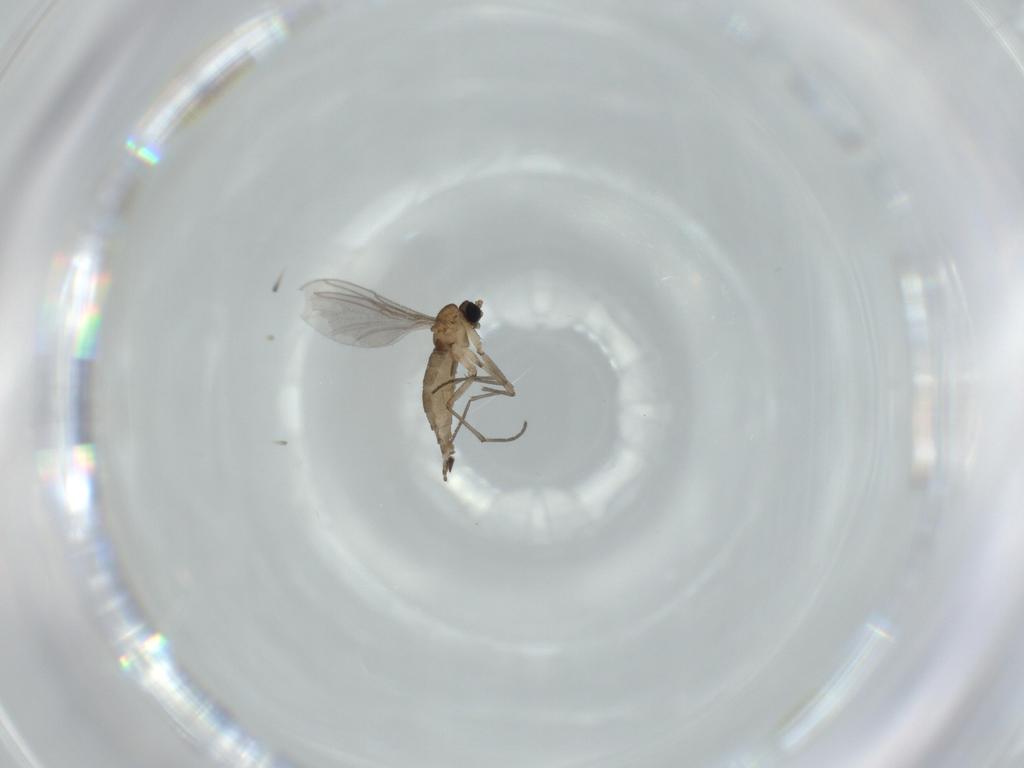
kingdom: Animalia
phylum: Arthropoda
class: Insecta
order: Diptera
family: Sciaridae
